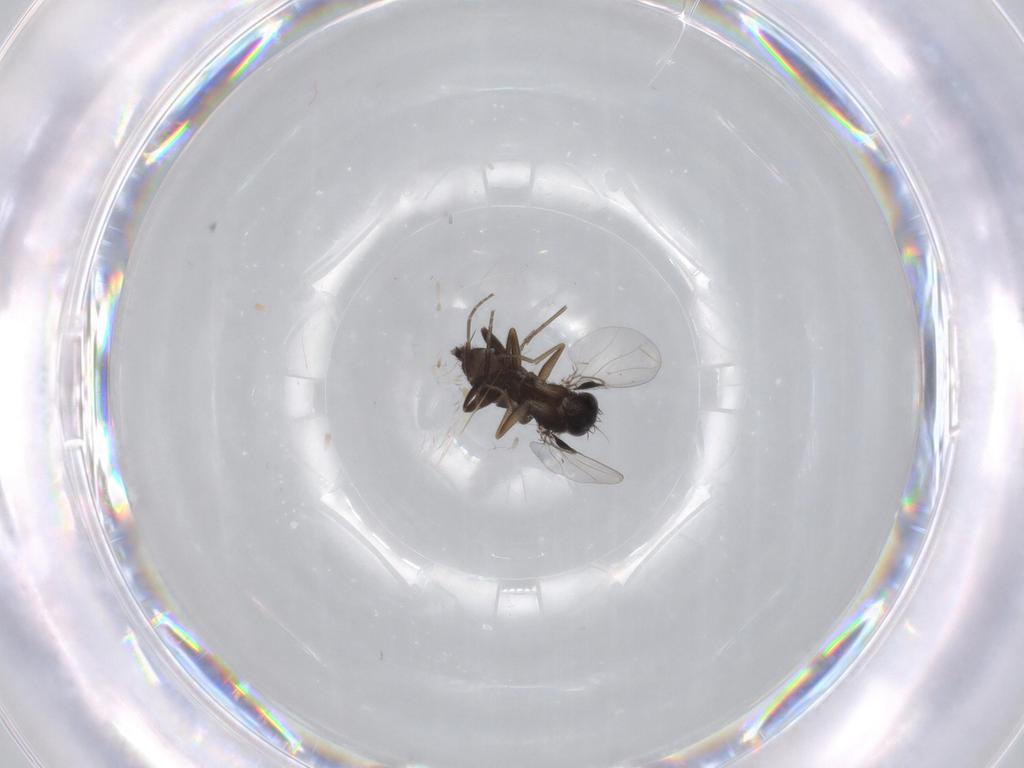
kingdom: Animalia
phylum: Arthropoda
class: Insecta
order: Diptera
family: Phoridae
